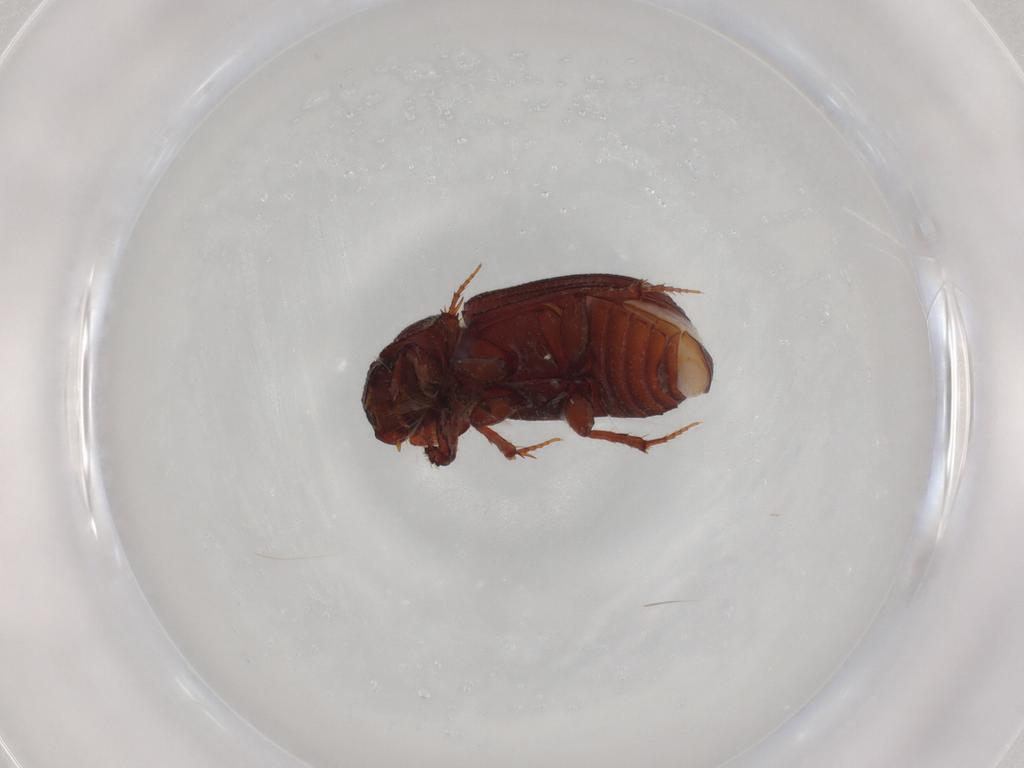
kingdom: Animalia
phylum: Arthropoda
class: Insecta
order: Coleoptera
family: Scarabaeidae
